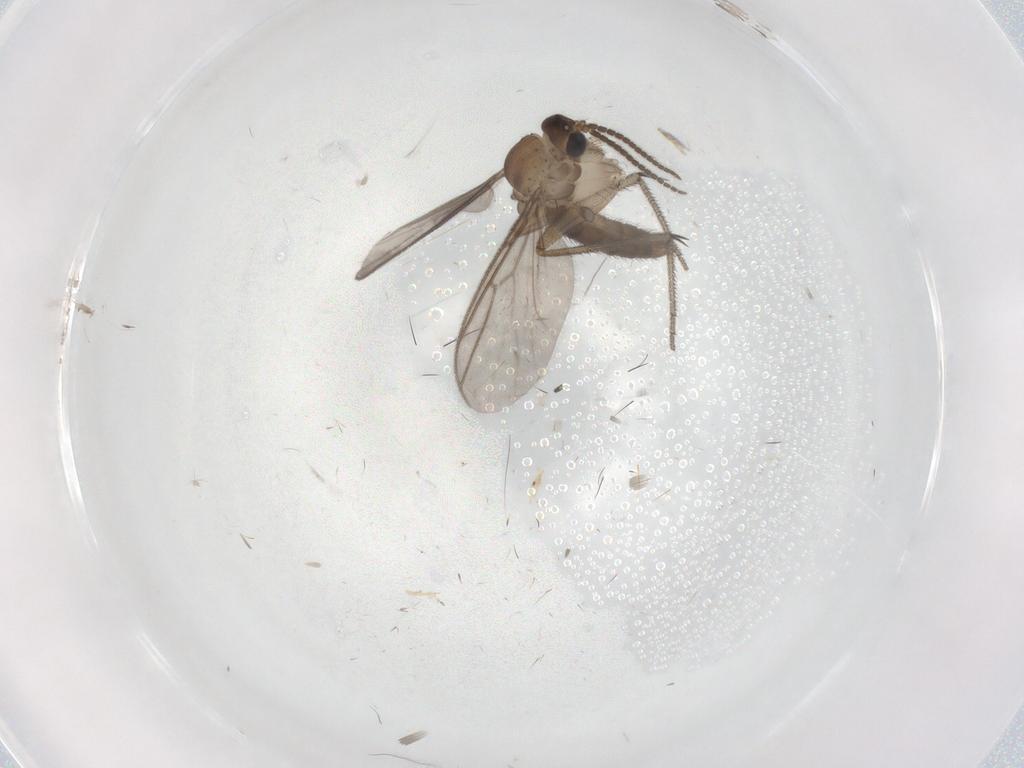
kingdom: Animalia
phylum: Arthropoda
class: Insecta
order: Diptera
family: Mycetophilidae
